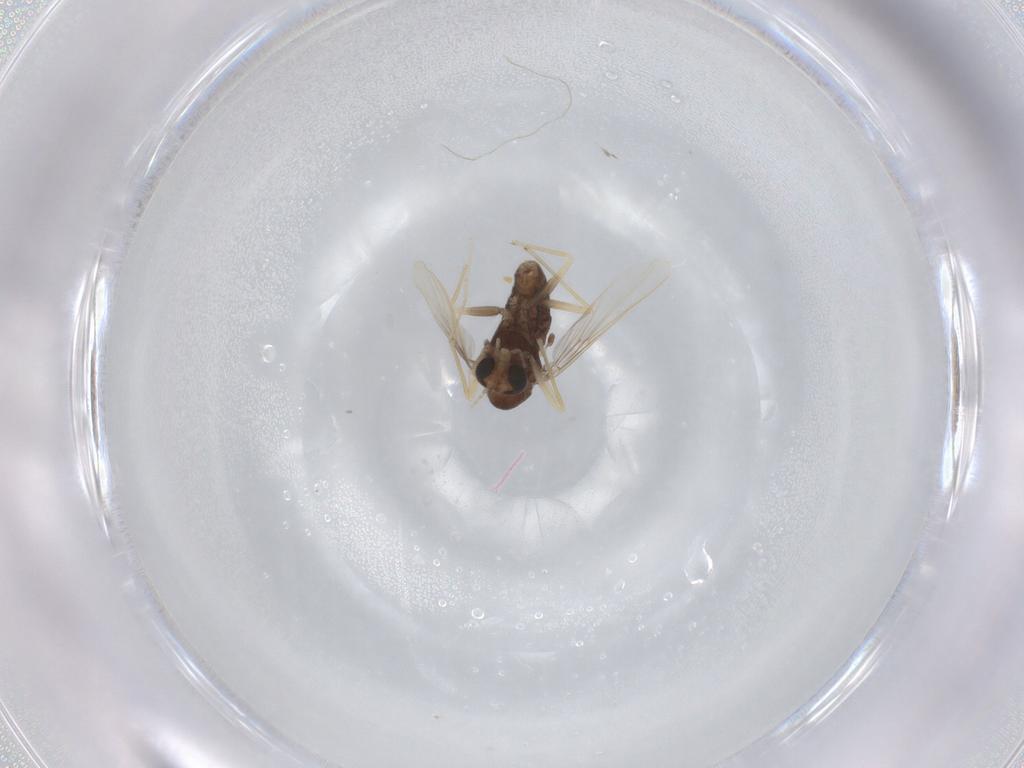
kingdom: Animalia
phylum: Arthropoda
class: Insecta
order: Diptera
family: Chironomidae
